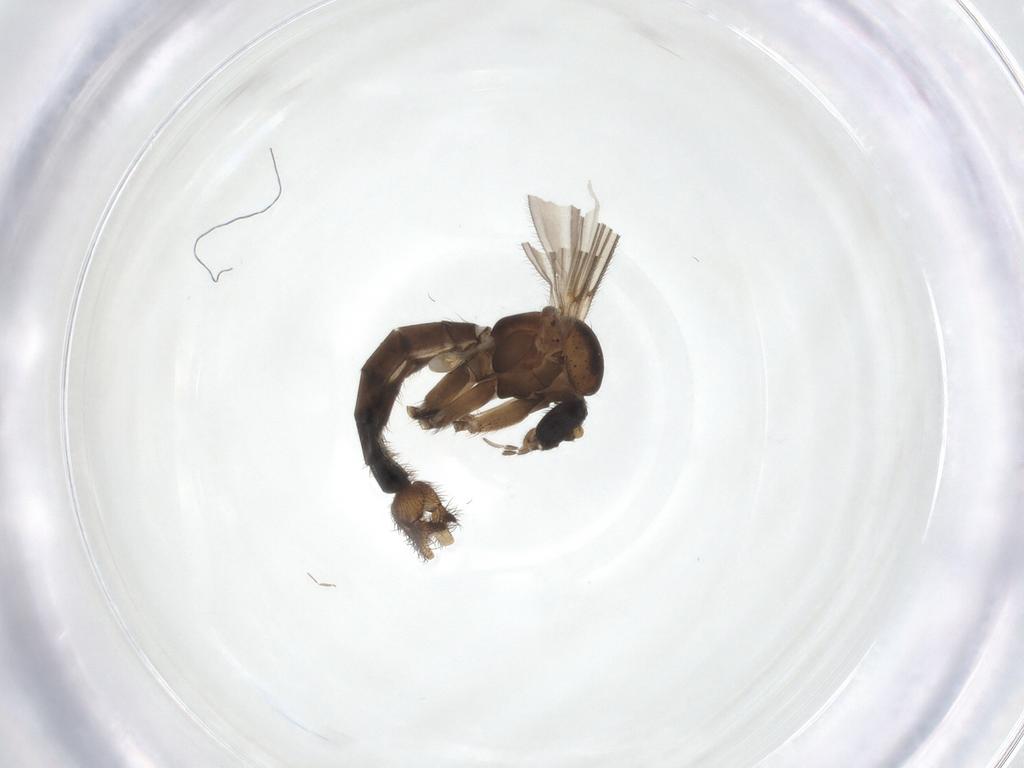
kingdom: Animalia
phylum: Arthropoda
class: Insecta
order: Diptera
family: Mycetophilidae
